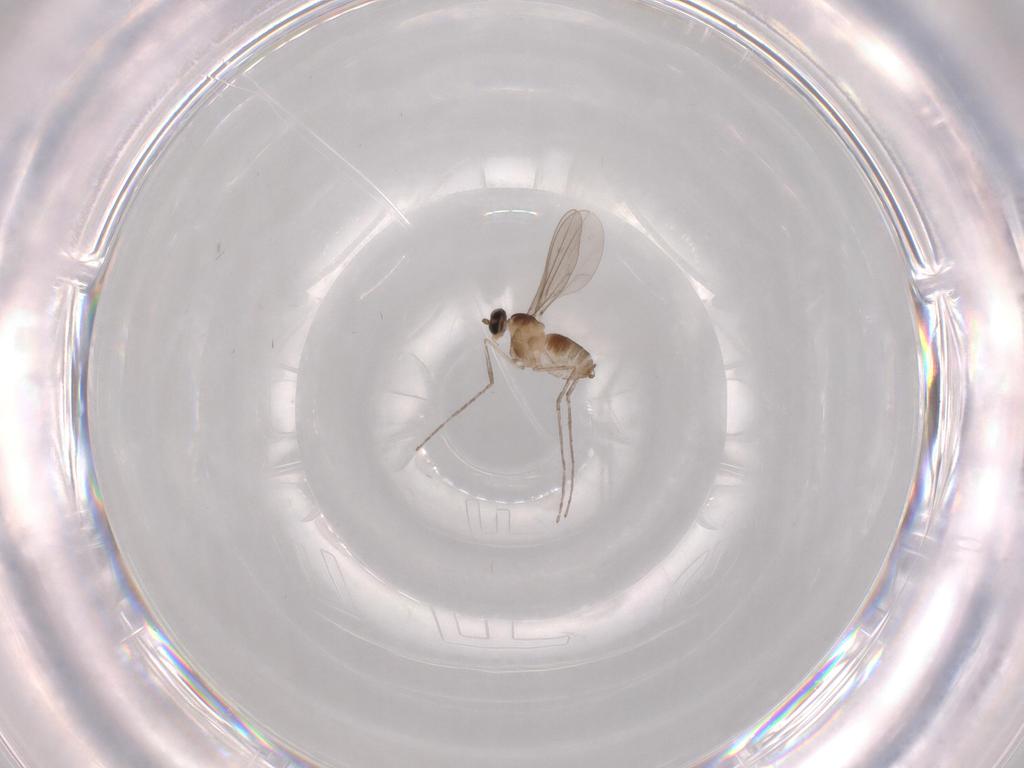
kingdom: Animalia
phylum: Arthropoda
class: Insecta
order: Diptera
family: Cecidomyiidae
